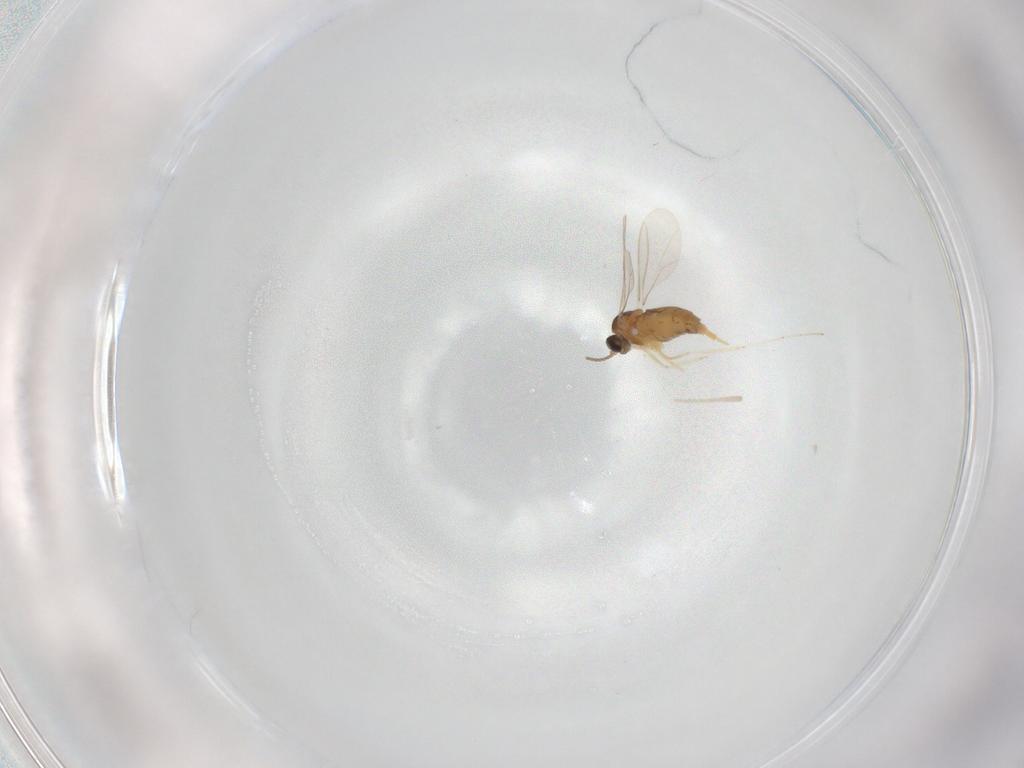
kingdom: Animalia
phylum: Arthropoda
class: Insecta
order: Diptera
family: Cecidomyiidae
